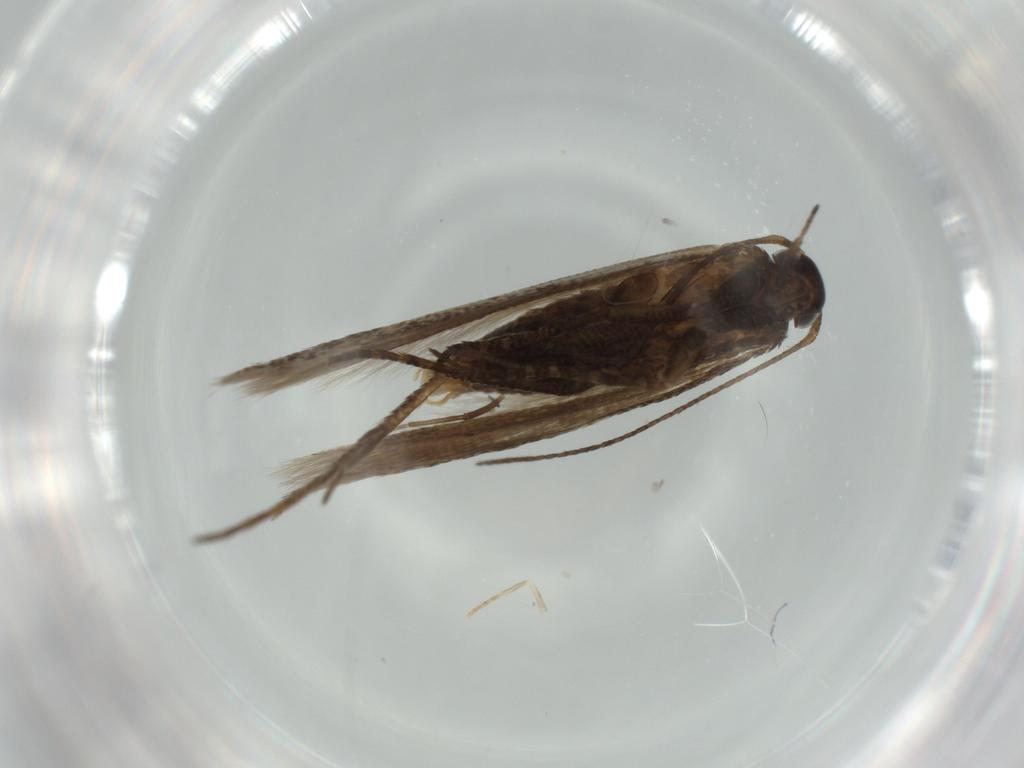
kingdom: Animalia
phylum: Arthropoda
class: Insecta
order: Lepidoptera
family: Gelechiidae
